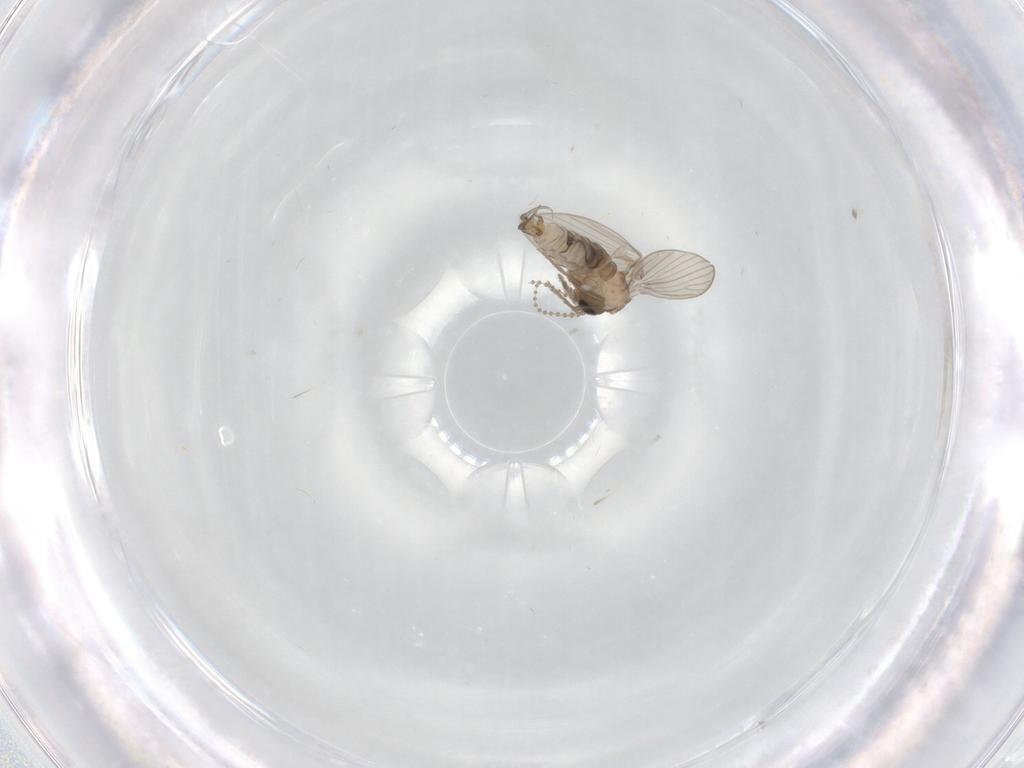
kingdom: Animalia
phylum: Arthropoda
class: Insecta
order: Diptera
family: Psychodidae
